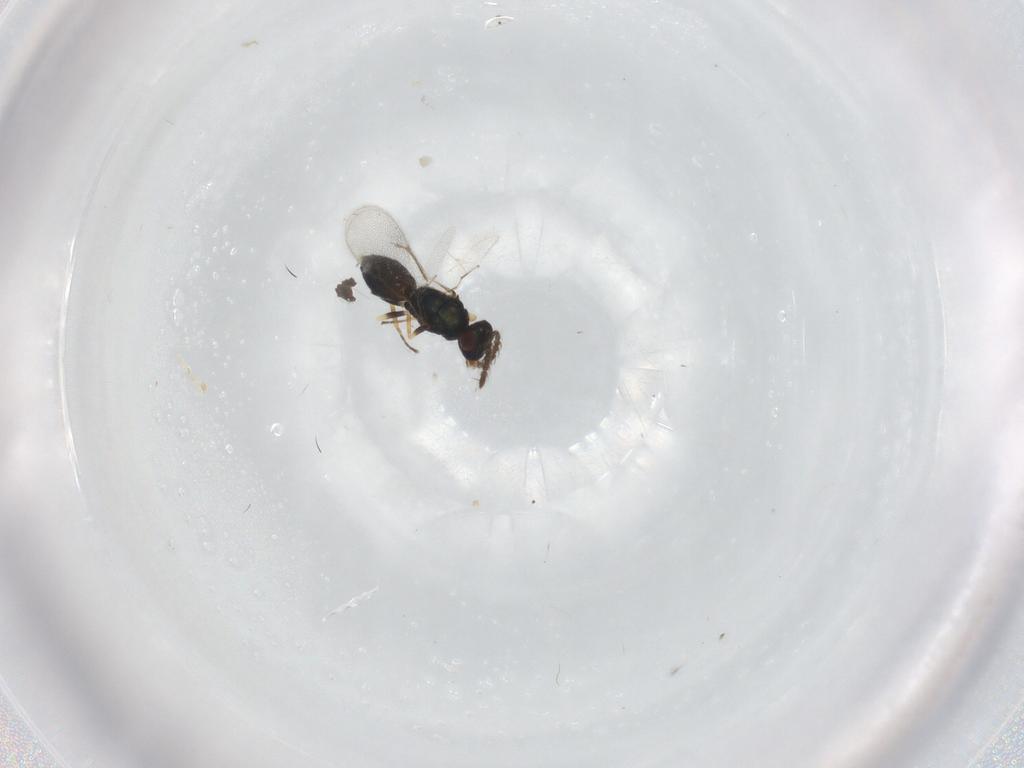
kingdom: Animalia
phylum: Arthropoda
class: Insecta
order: Hymenoptera
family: Eulophidae
